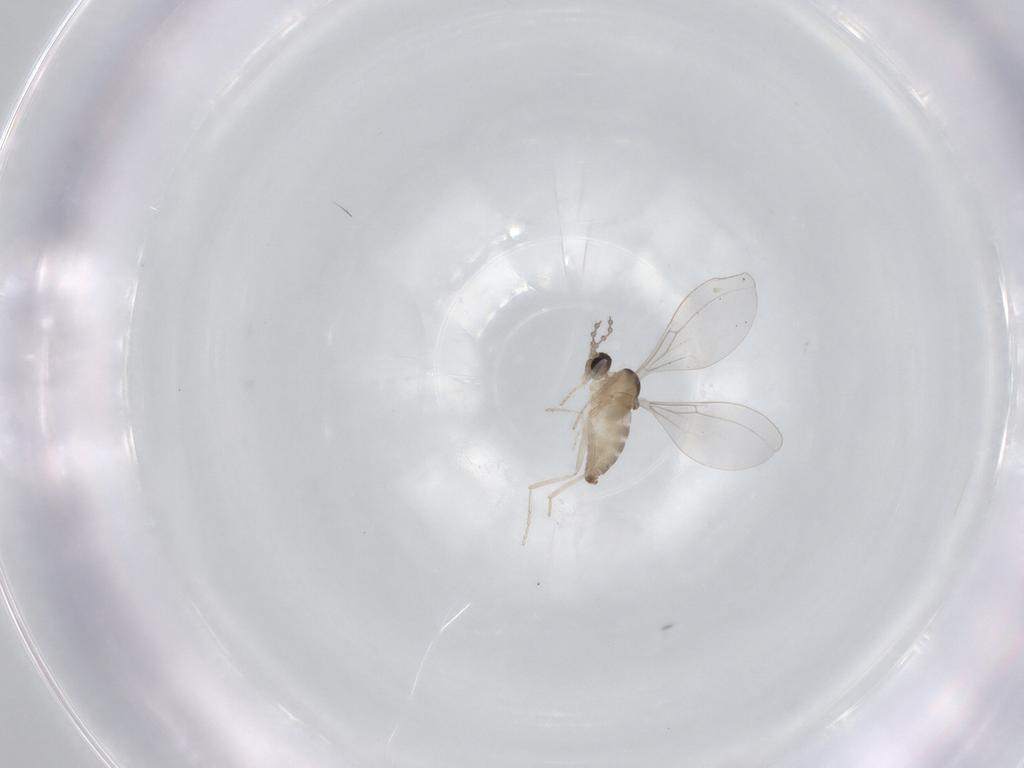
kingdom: Animalia
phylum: Arthropoda
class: Insecta
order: Diptera
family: Cecidomyiidae
